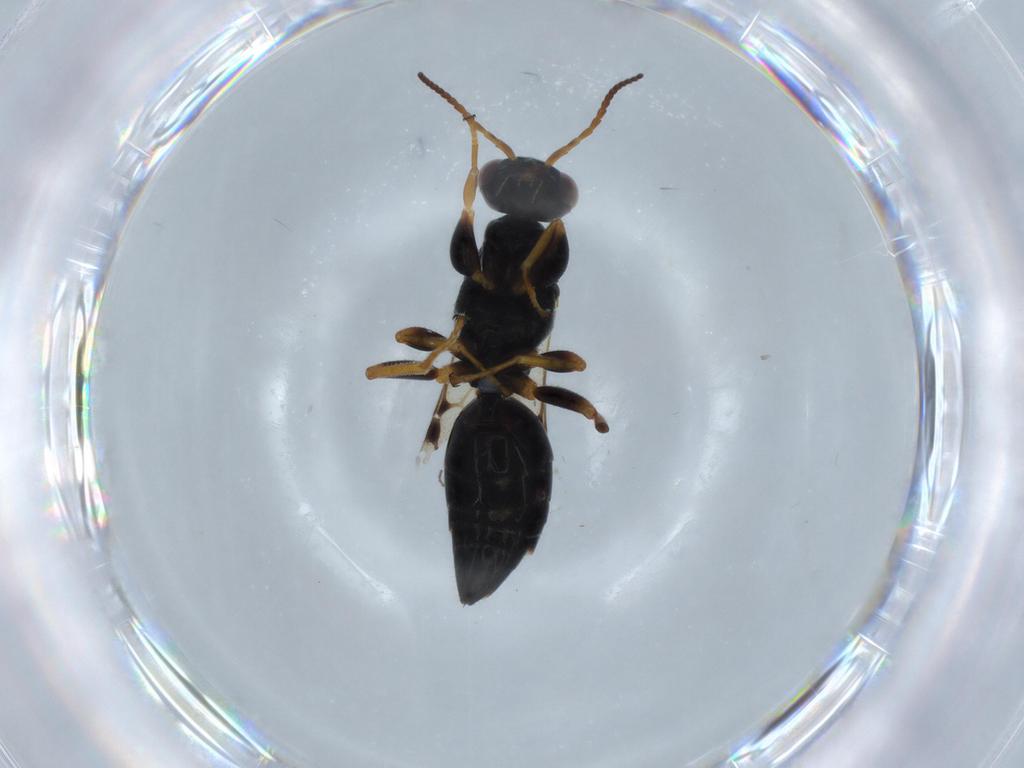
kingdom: Animalia
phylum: Arthropoda
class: Insecta
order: Hymenoptera
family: Bethylidae
